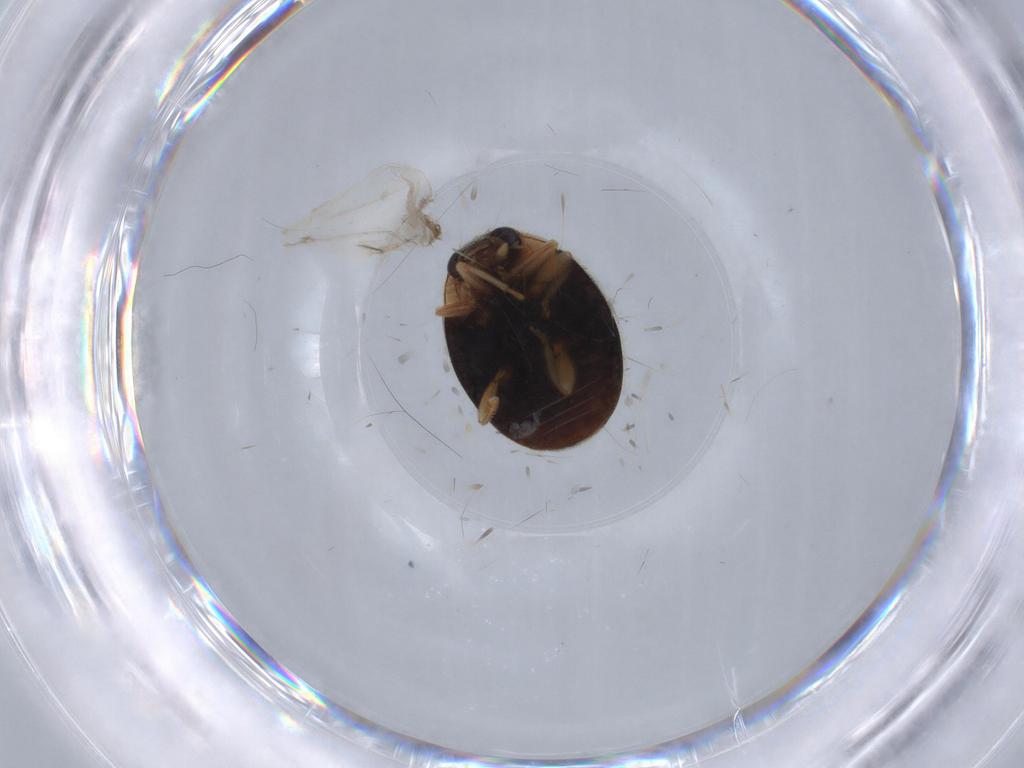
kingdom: Animalia
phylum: Arthropoda
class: Insecta
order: Coleoptera
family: Coccinellidae
